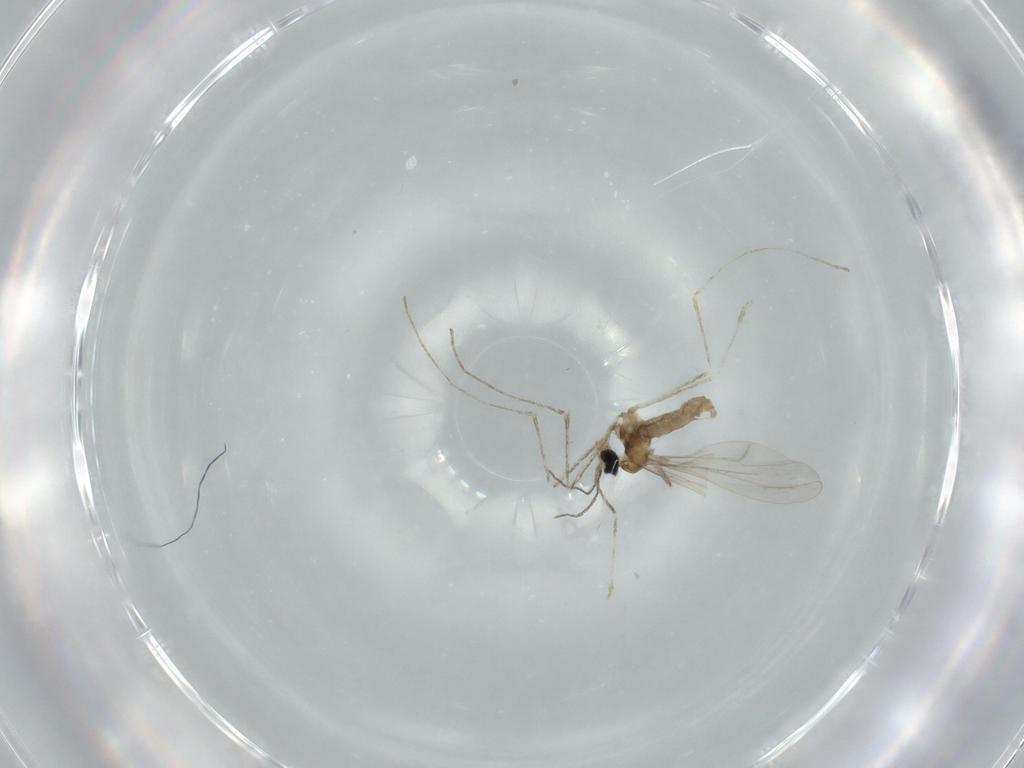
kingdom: Animalia
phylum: Arthropoda
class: Insecta
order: Diptera
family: Cecidomyiidae
